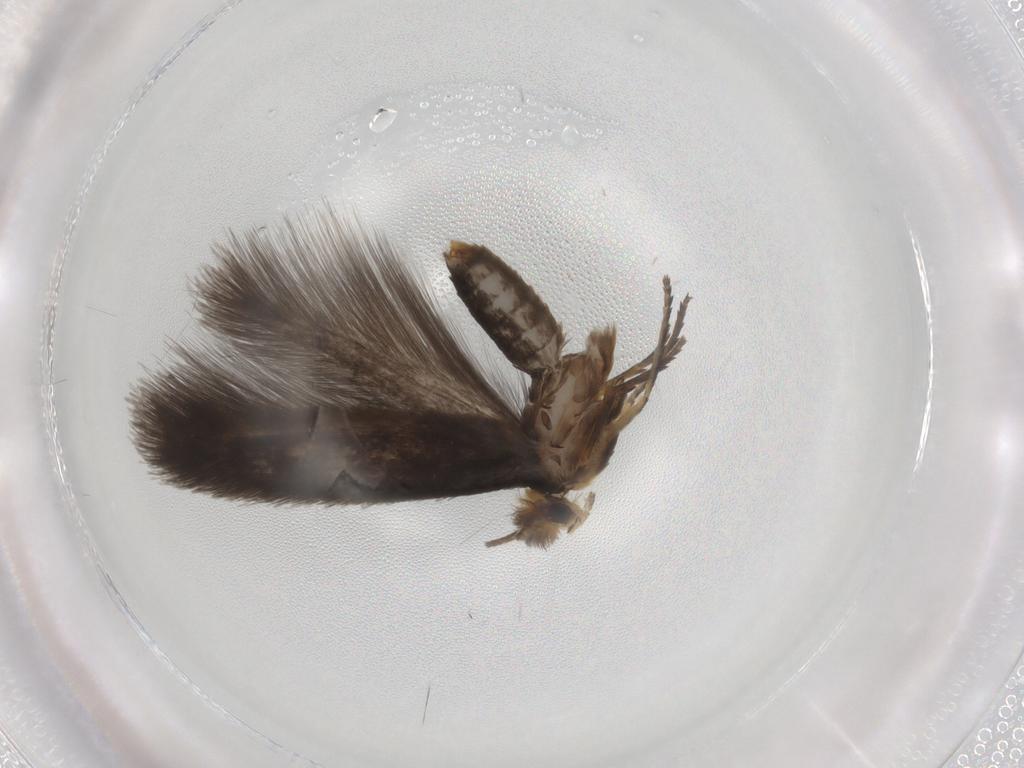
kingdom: Animalia
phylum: Arthropoda
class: Insecta
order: Lepidoptera
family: Nepticulidae
